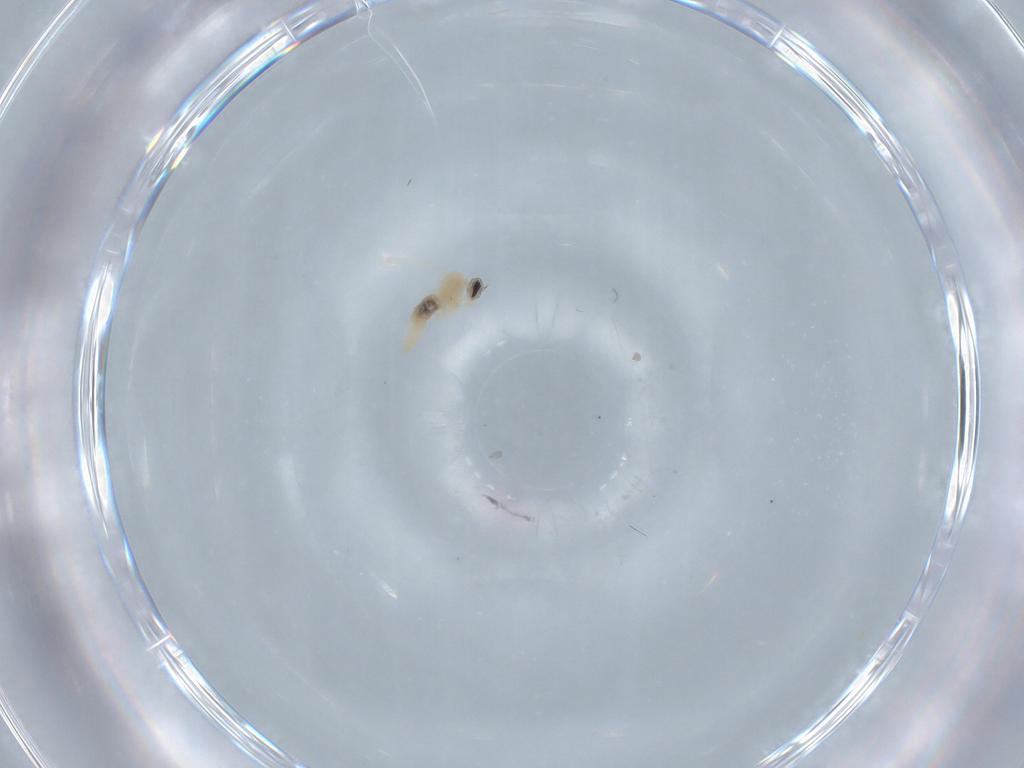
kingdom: Animalia
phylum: Arthropoda
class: Insecta
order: Diptera
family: Cecidomyiidae
